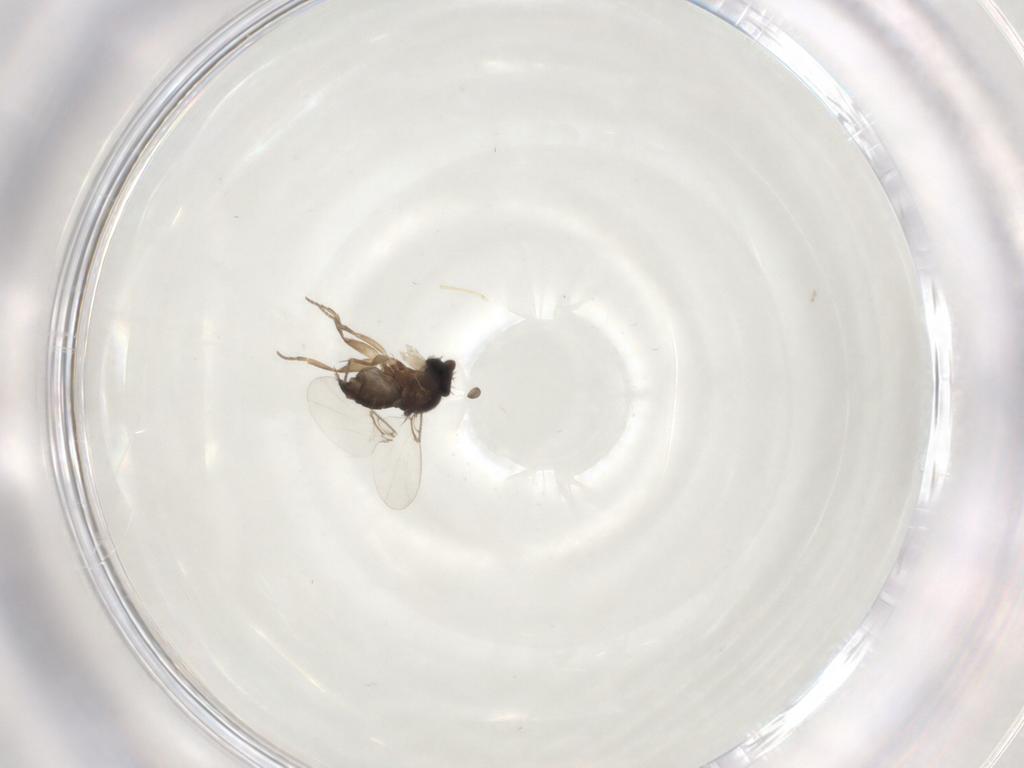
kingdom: Animalia
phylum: Arthropoda
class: Insecta
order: Diptera
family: Phoridae
